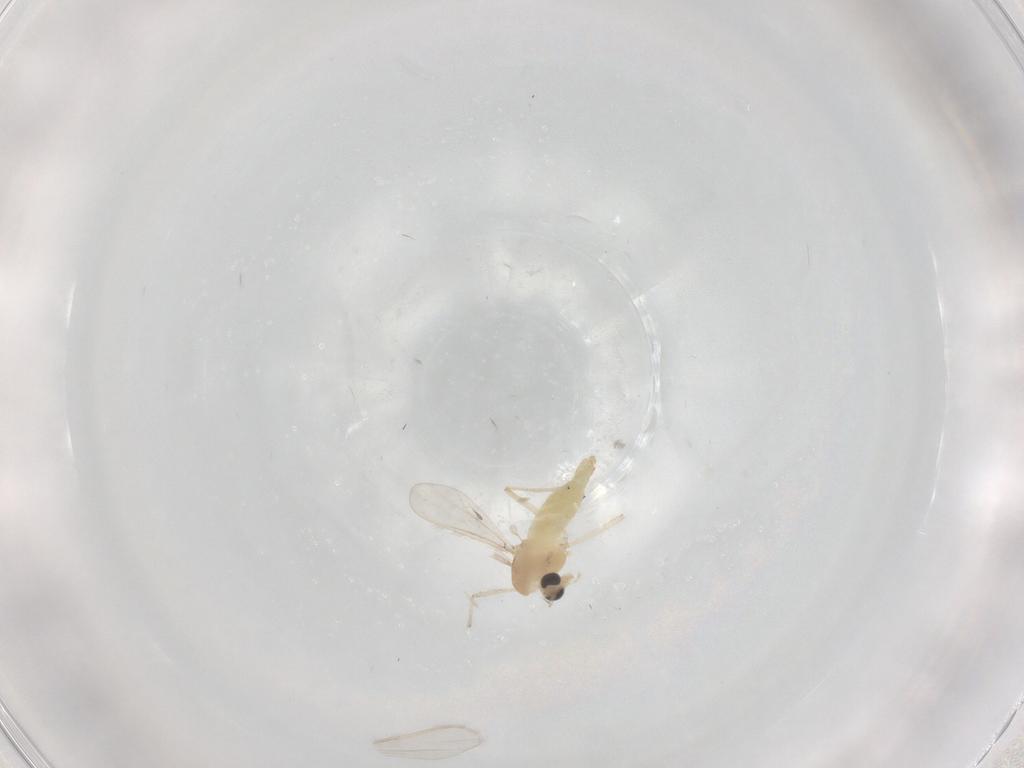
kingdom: Animalia
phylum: Arthropoda
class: Insecta
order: Diptera
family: Chironomidae
